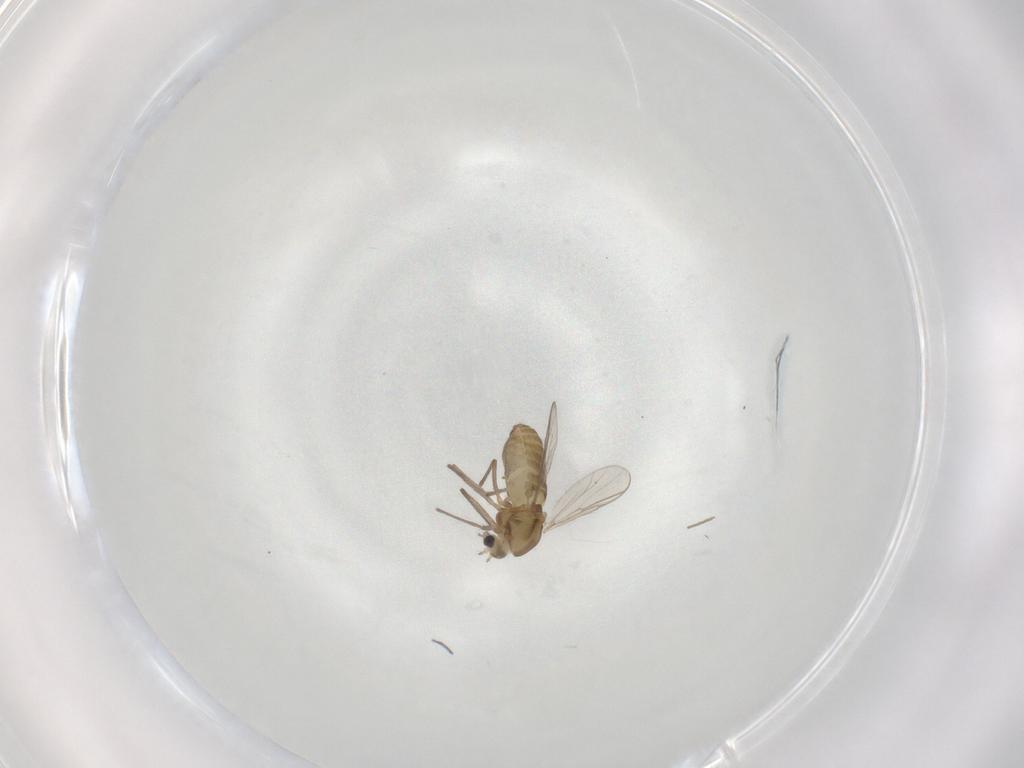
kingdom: Animalia
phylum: Arthropoda
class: Insecta
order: Diptera
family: Chironomidae
